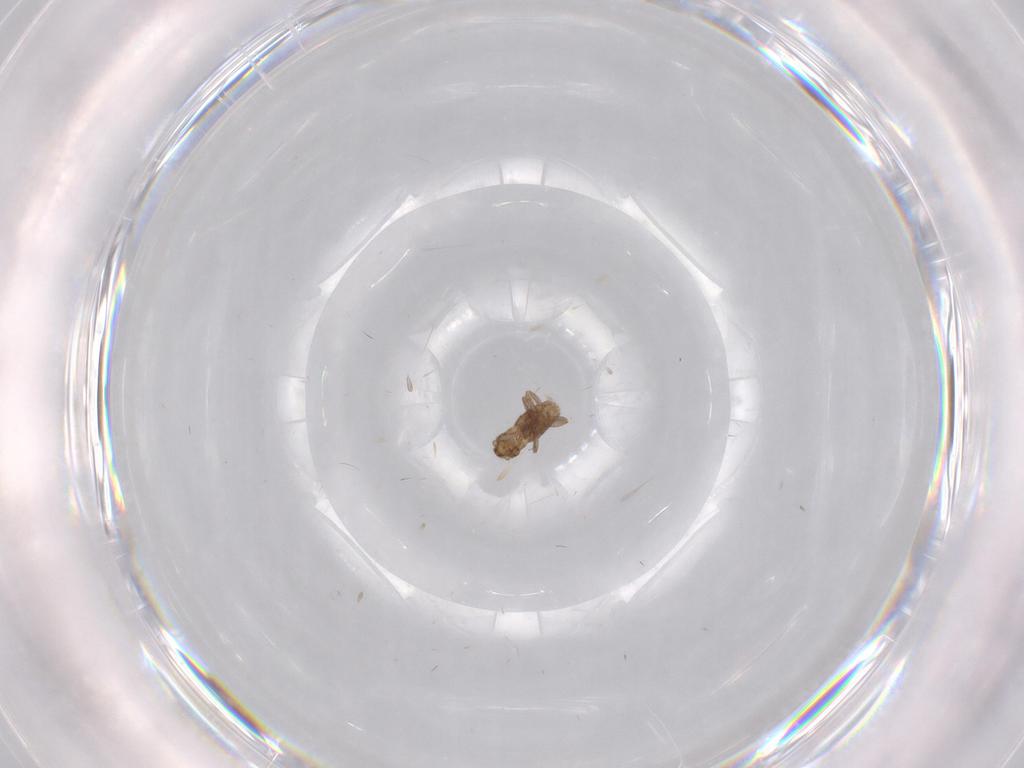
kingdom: Animalia
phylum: Arthropoda
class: Insecta
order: Diptera
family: Phoridae
